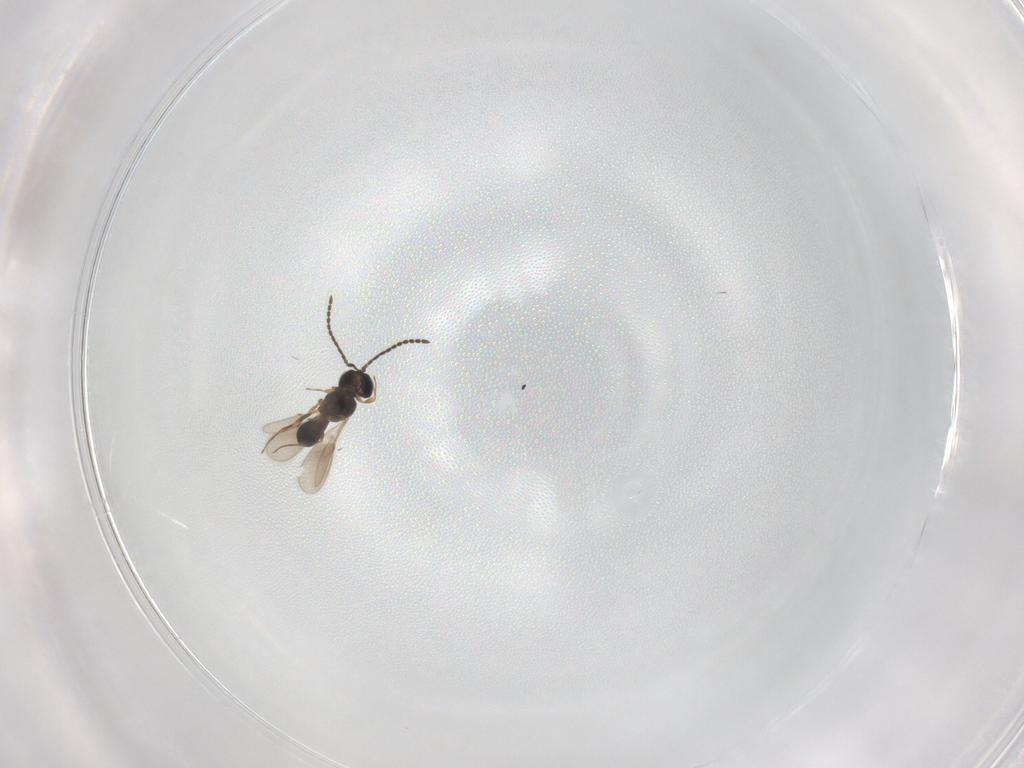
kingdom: Animalia
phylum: Arthropoda
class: Insecta
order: Hymenoptera
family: Scelionidae
